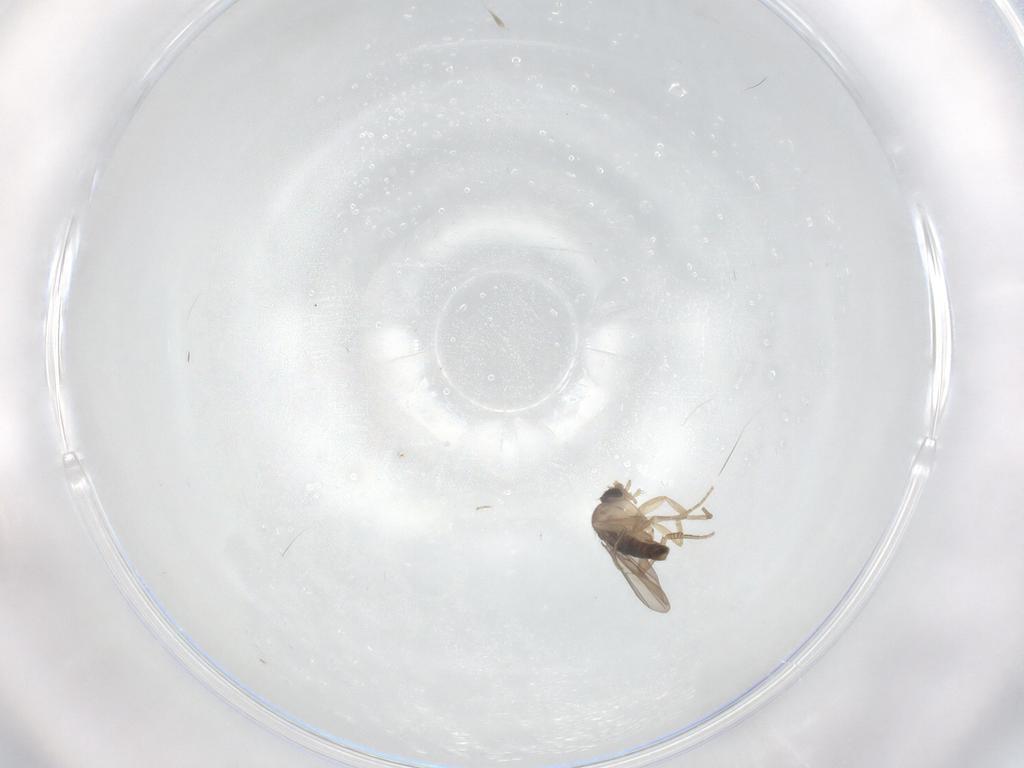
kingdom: Animalia
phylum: Arthropoda
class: Insecta
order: Diptera
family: Phoridae
